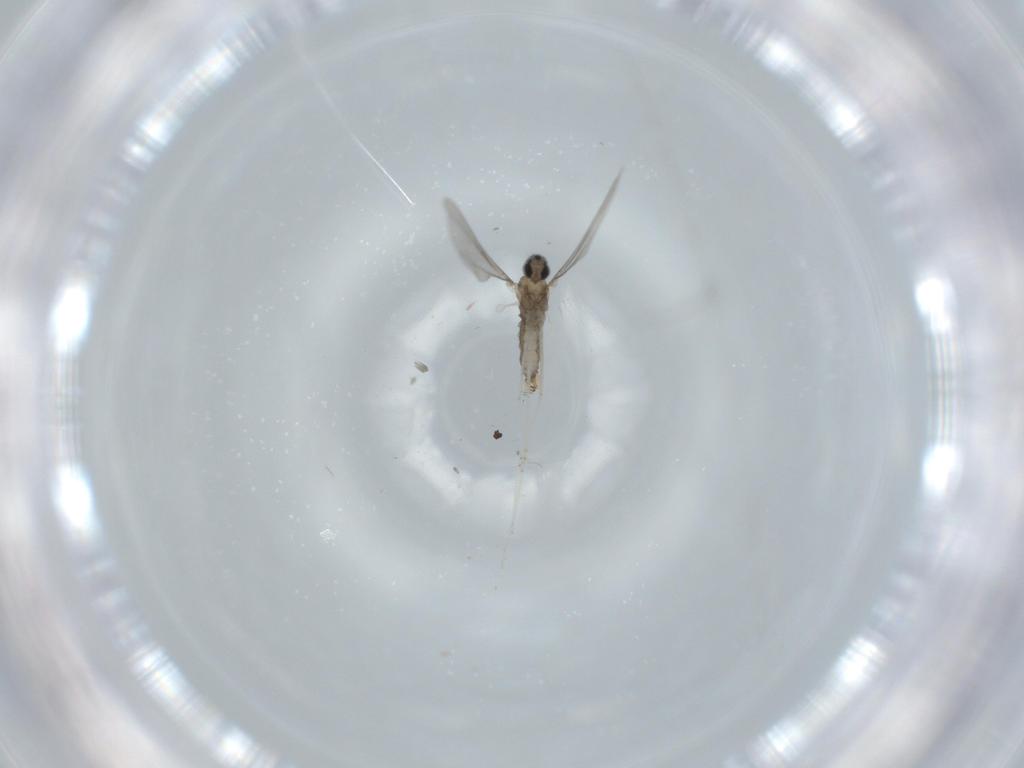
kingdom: Animalia
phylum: Arthropoda
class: Insecta
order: Diptera
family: Cecidomyiidae
